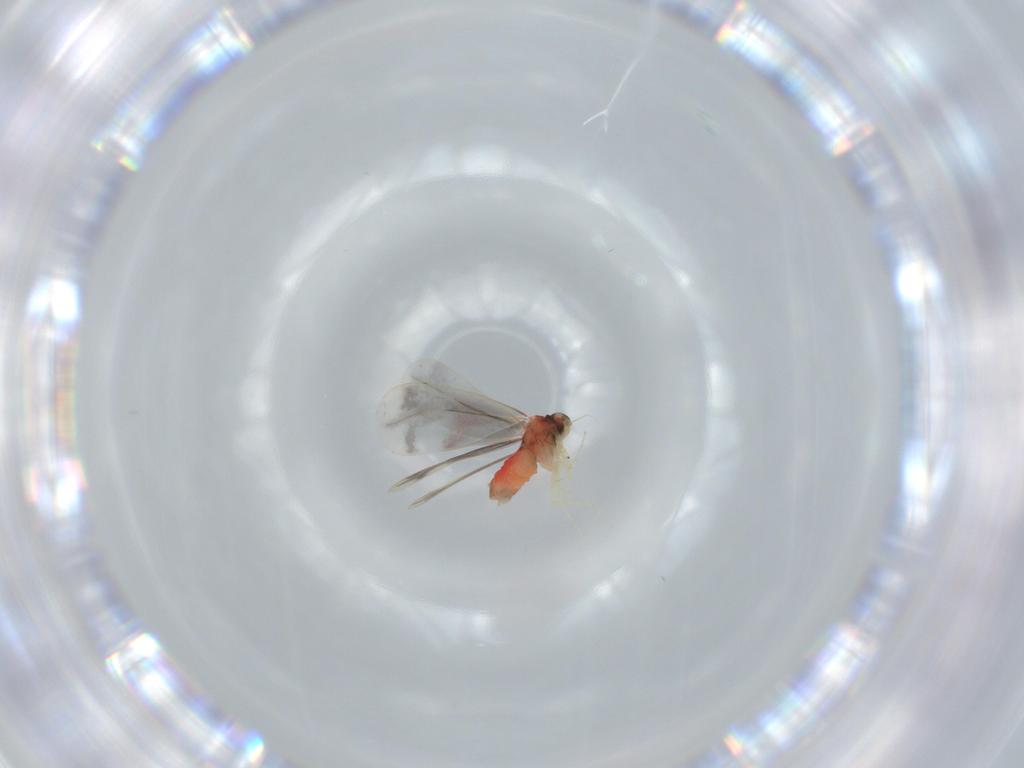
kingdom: Animalia
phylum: Arthropoda
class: Insecta
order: Hemiptera
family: Aleyrodidae
